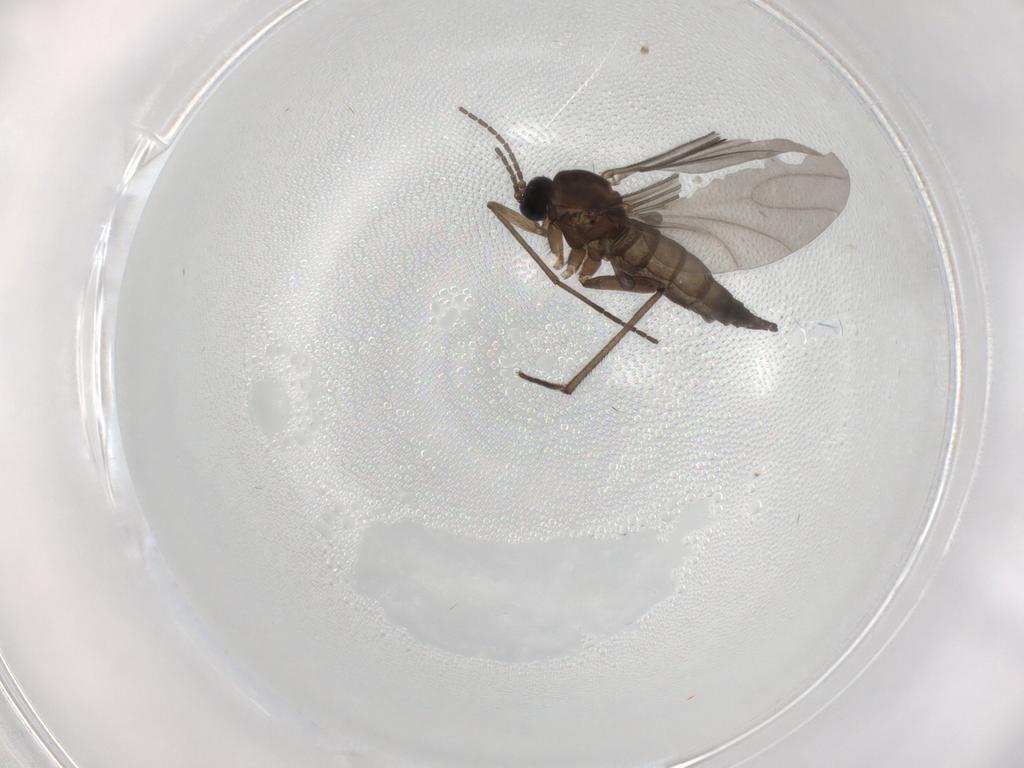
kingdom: Animalia
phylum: Arthropoda
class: Insecta
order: Diptera
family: Sciaridae
